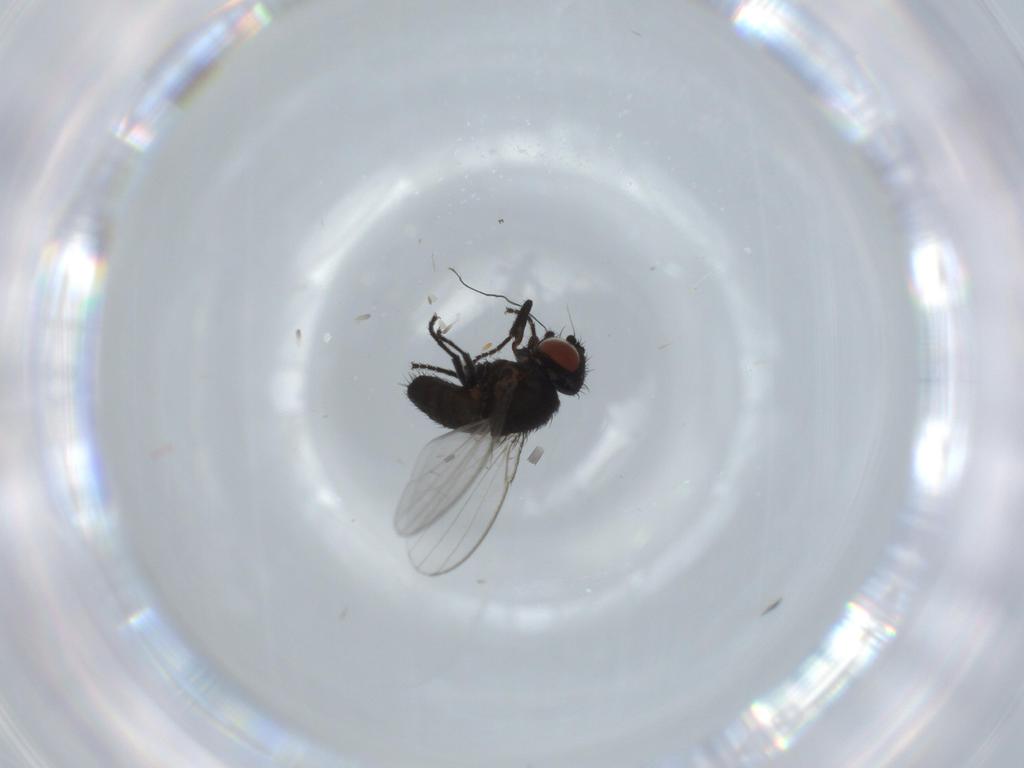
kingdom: Animalia
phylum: Arthropoda
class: Insecta
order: Diptera
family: Milichiidae
